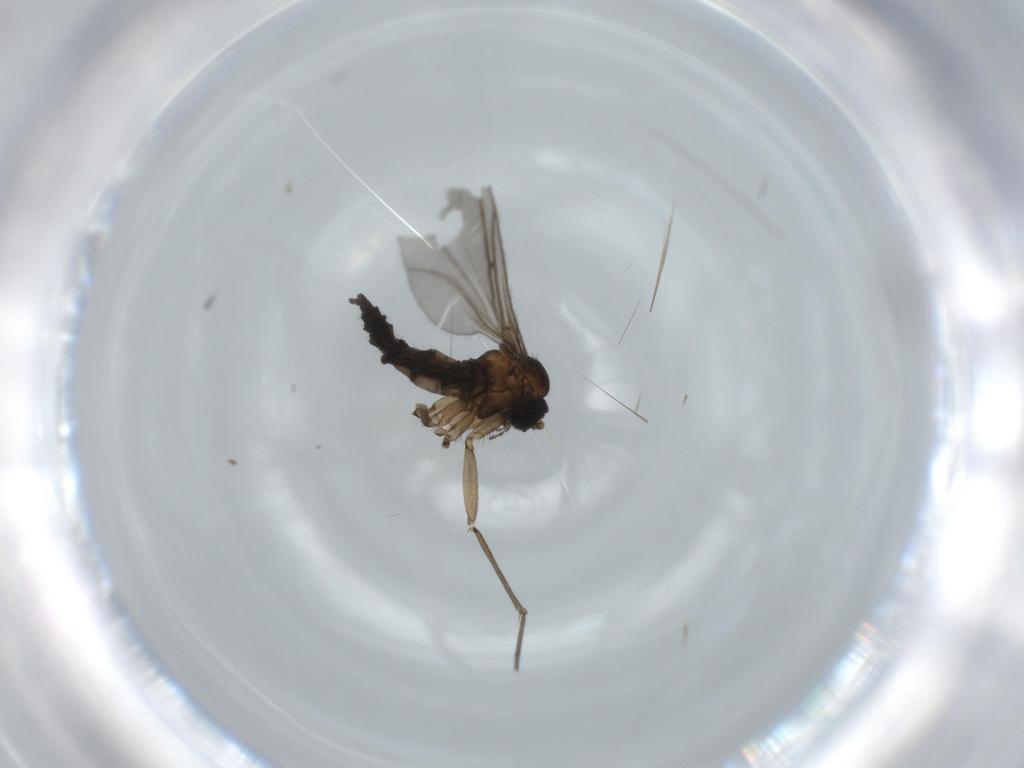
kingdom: Animalia
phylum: Arthropoda
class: Insecta
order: Diptera
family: Sciaridae
